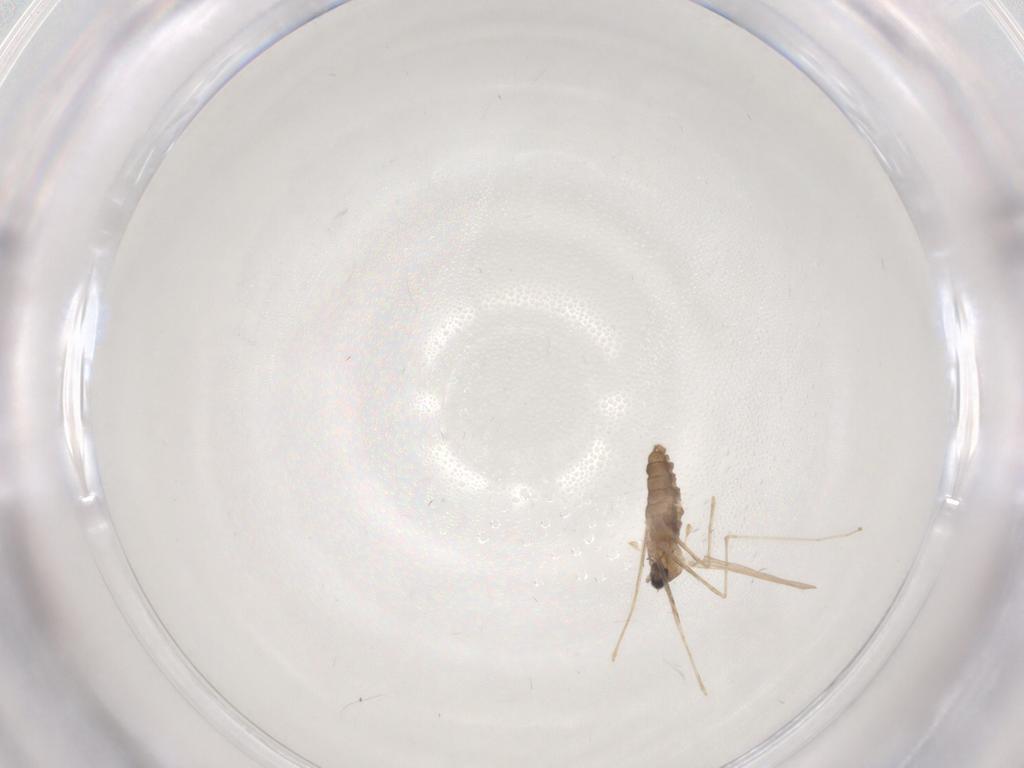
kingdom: Animalia
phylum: Arthropoda
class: Insecta
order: Diptera
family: Cecidomyiidae
